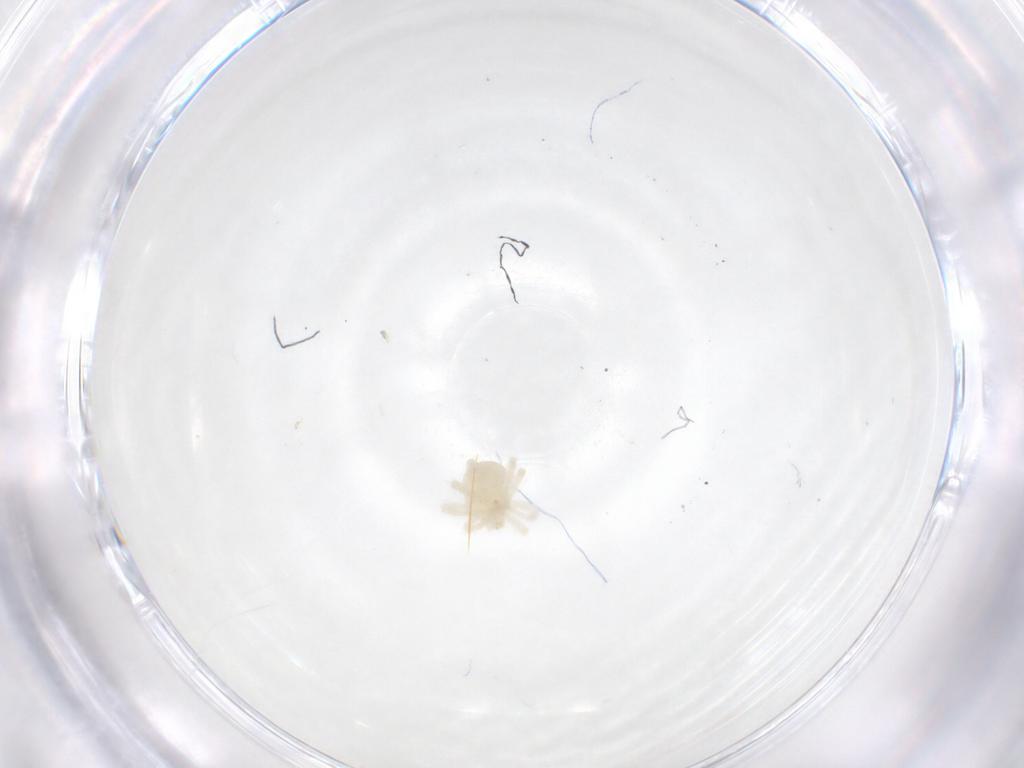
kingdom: Animalia
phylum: Arthropoda
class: Arachnida
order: Trombidiformes
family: Anystidae
